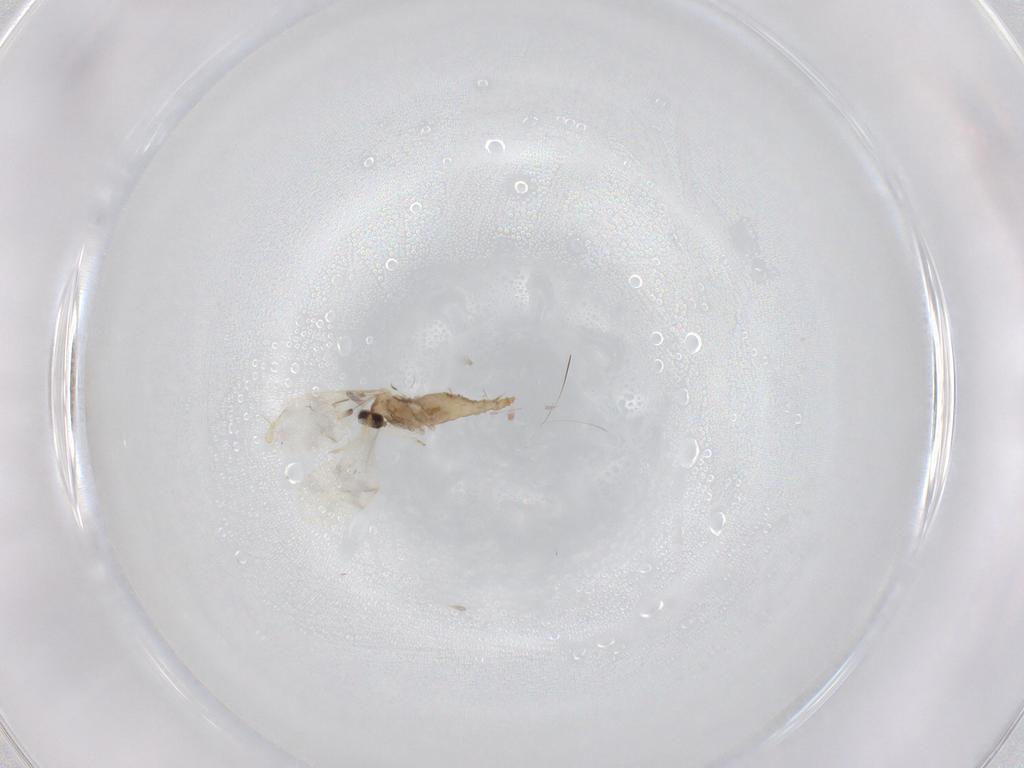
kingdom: Animalia
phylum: Arthropoda
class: Insecta
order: Diptera
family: Cecidomyiidae
